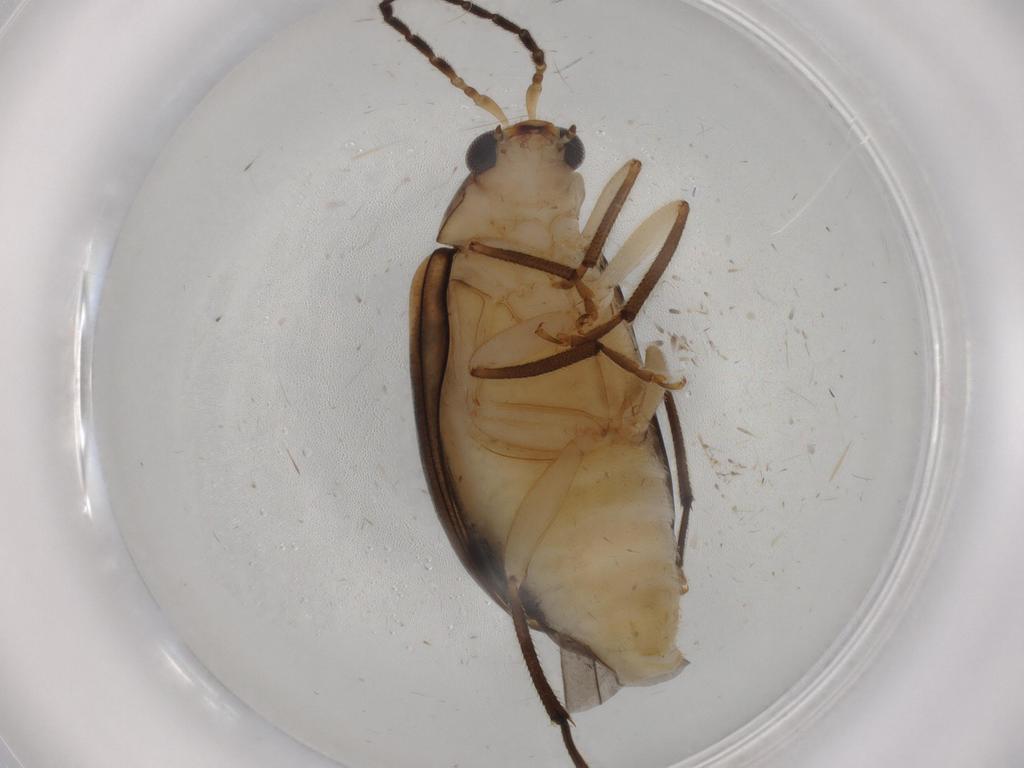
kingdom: Animalia
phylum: Arthropoda
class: Insecta
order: Coleoptera
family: Chrysomelidae
